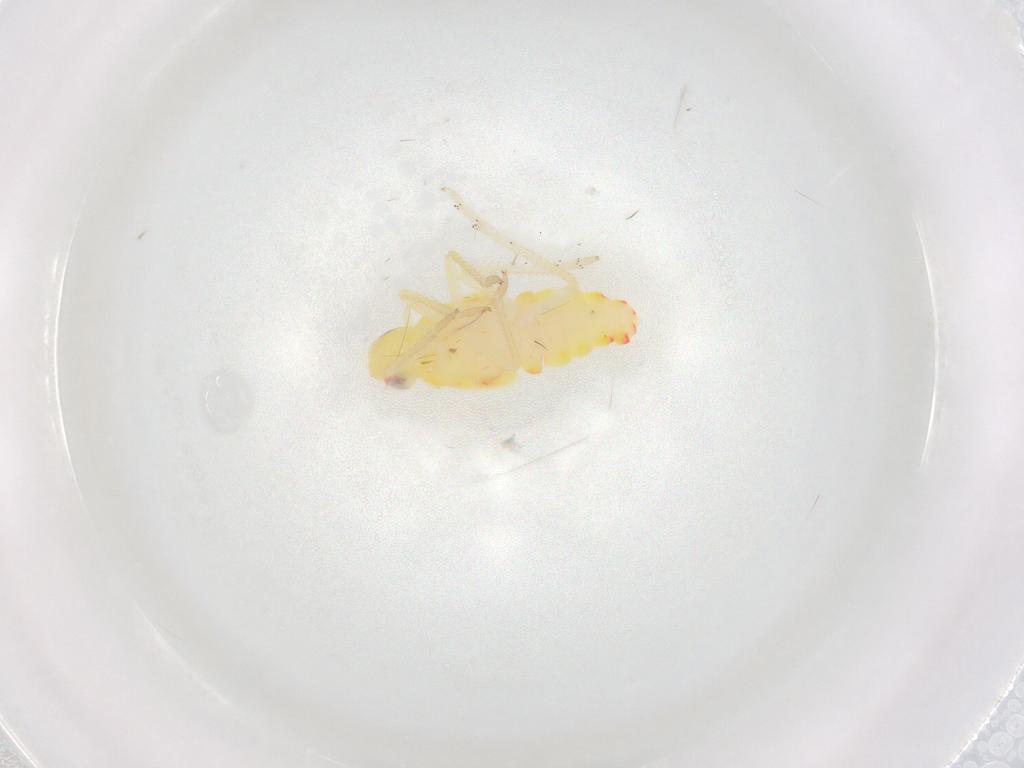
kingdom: Animalia
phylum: Arthropoda
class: Insecta
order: Hemiptera
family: Tropiduchidae
